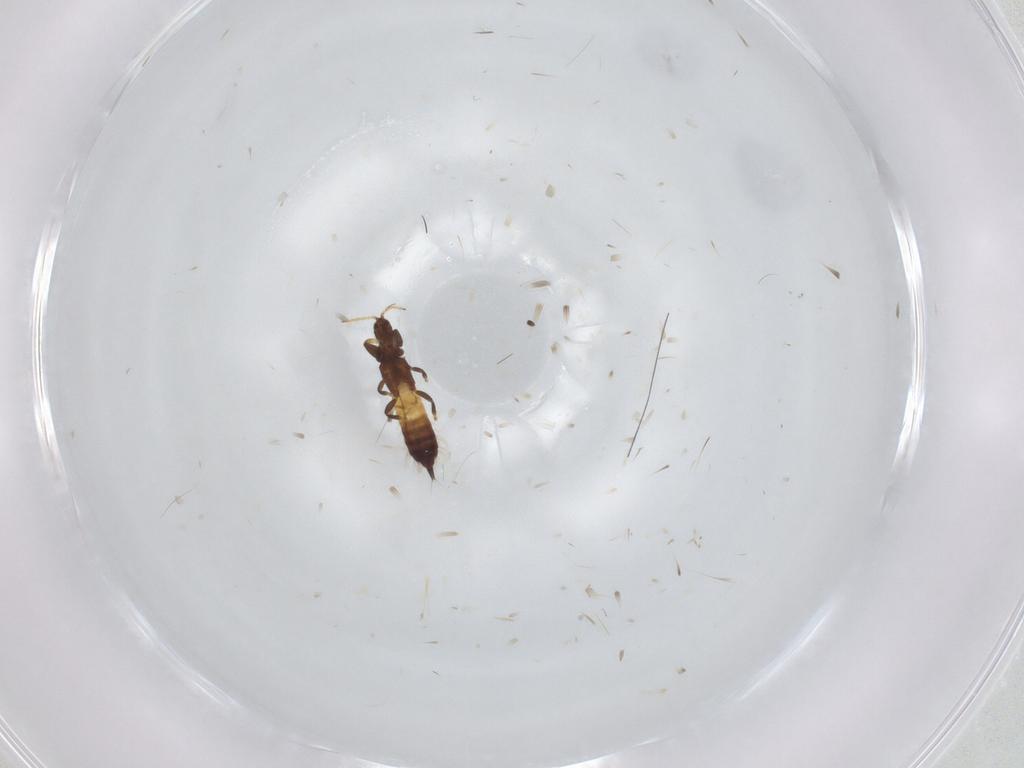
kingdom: Animalia
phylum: Arthropoda
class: Insecta
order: Thysanoptera
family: Phlaeothripidae
